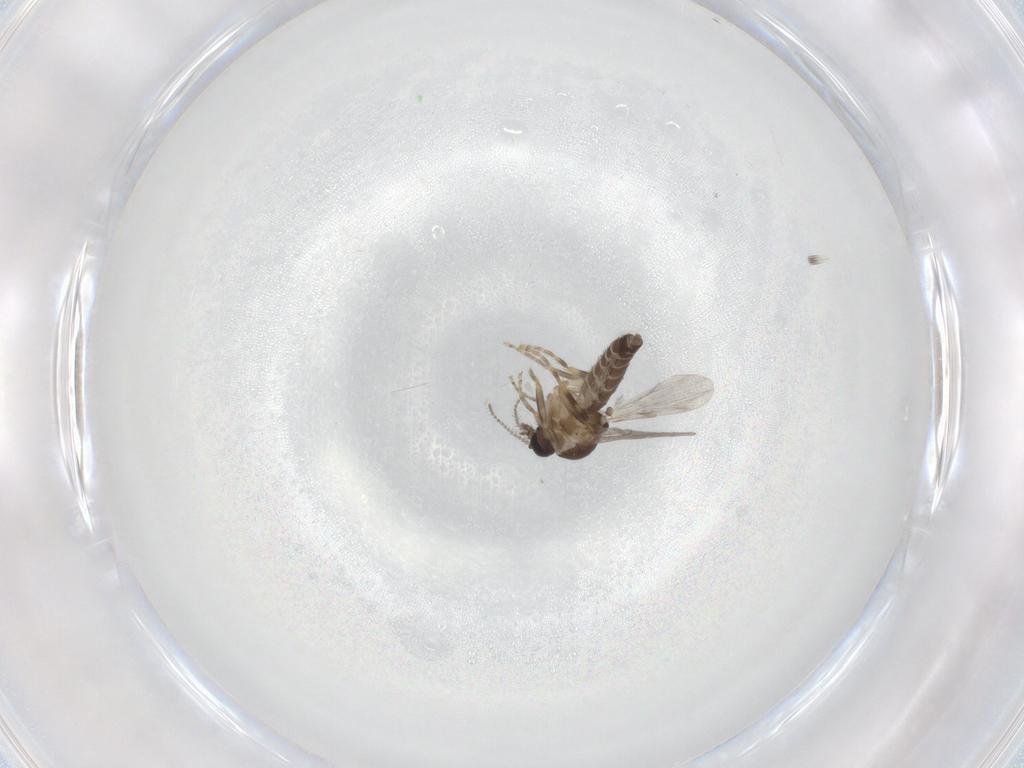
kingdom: Animalia
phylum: Arthropoda
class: Insecta
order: Diptera
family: Ceratopogonidae
